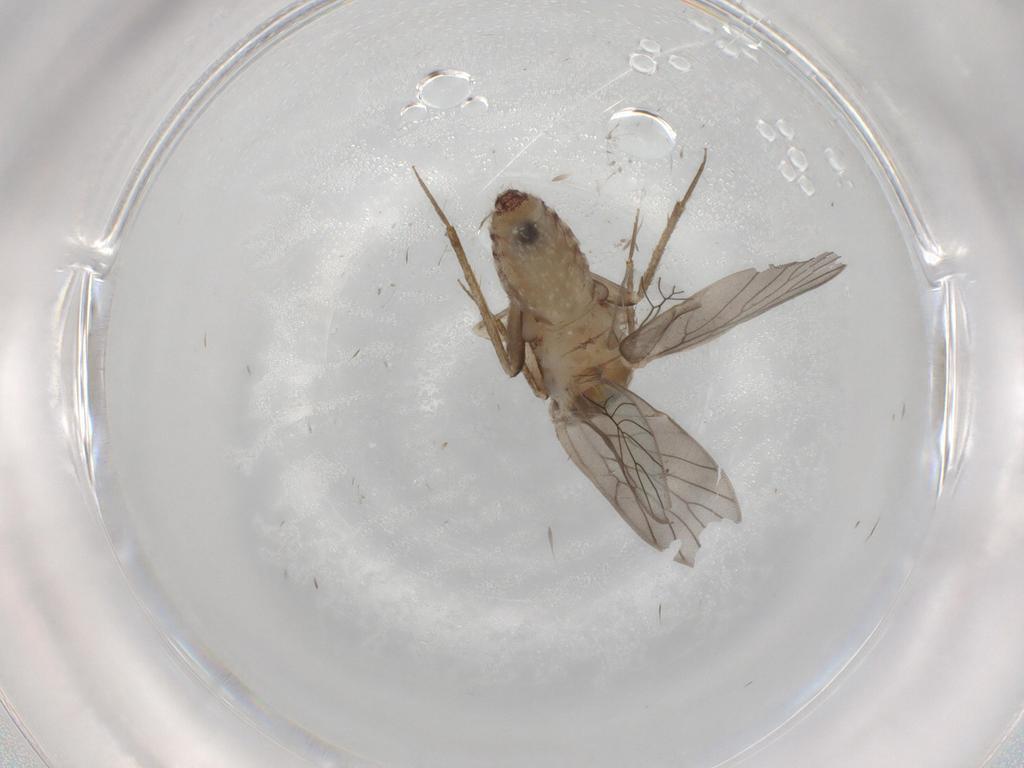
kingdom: Animalia
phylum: Arthropoda
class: Insecta
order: Psocodea
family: Lepidopsocidae
